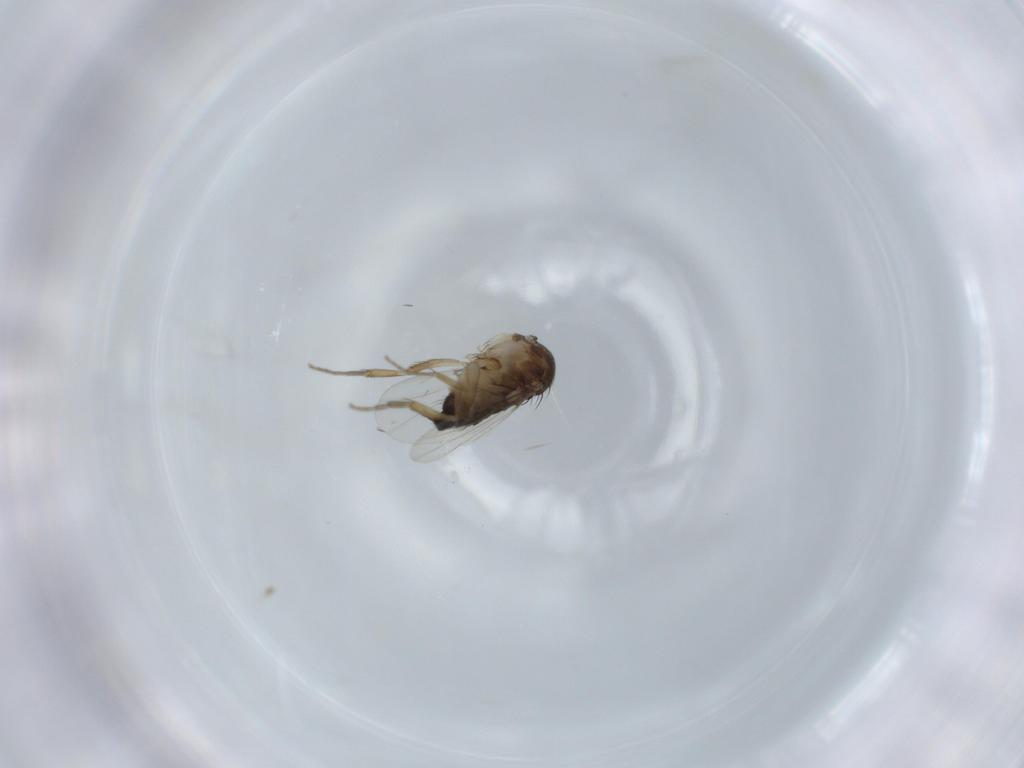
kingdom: Animalia
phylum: Arthropoda
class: Insecta
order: Diptera
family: Phoridae
